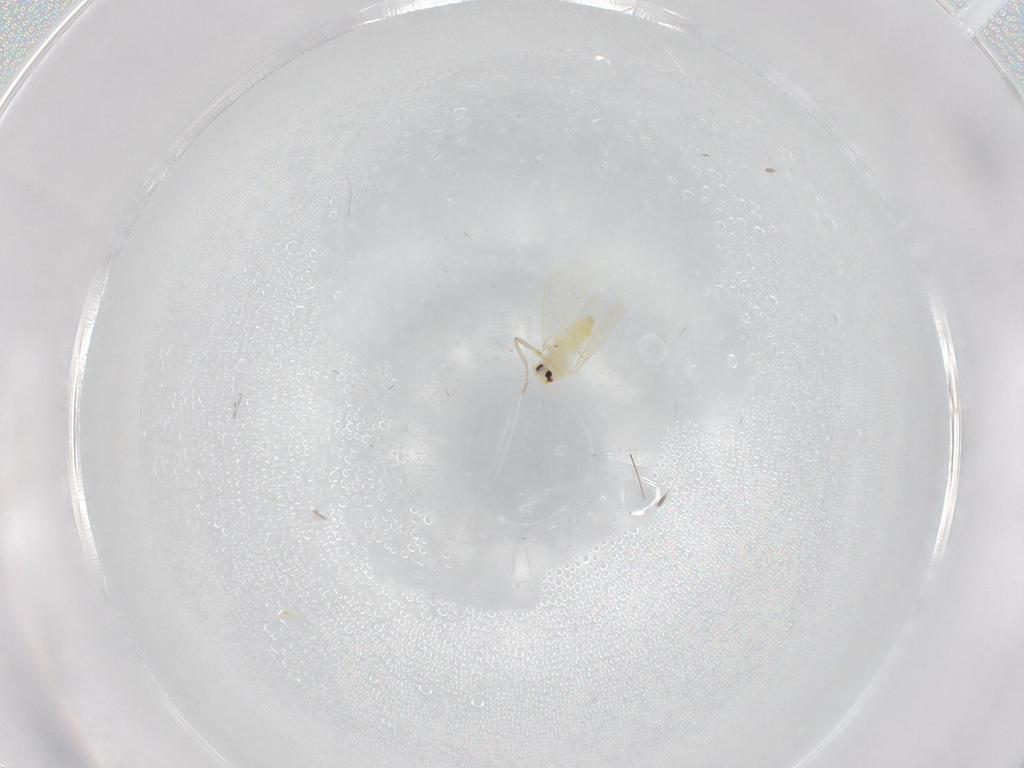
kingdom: Animalia
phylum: Arthropoda
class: Insecta
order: Hemiptera
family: Aleyrodidae
